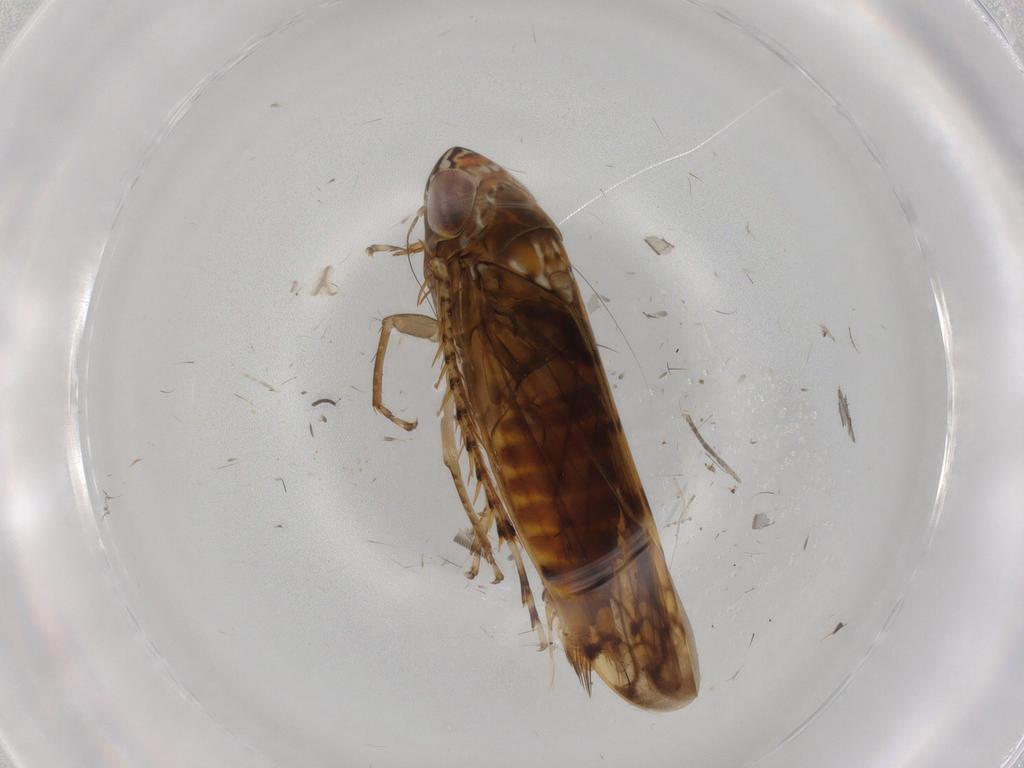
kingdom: Animalia
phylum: Arthropoda
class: Insecta
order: Hemiptera
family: Cicadellidae
